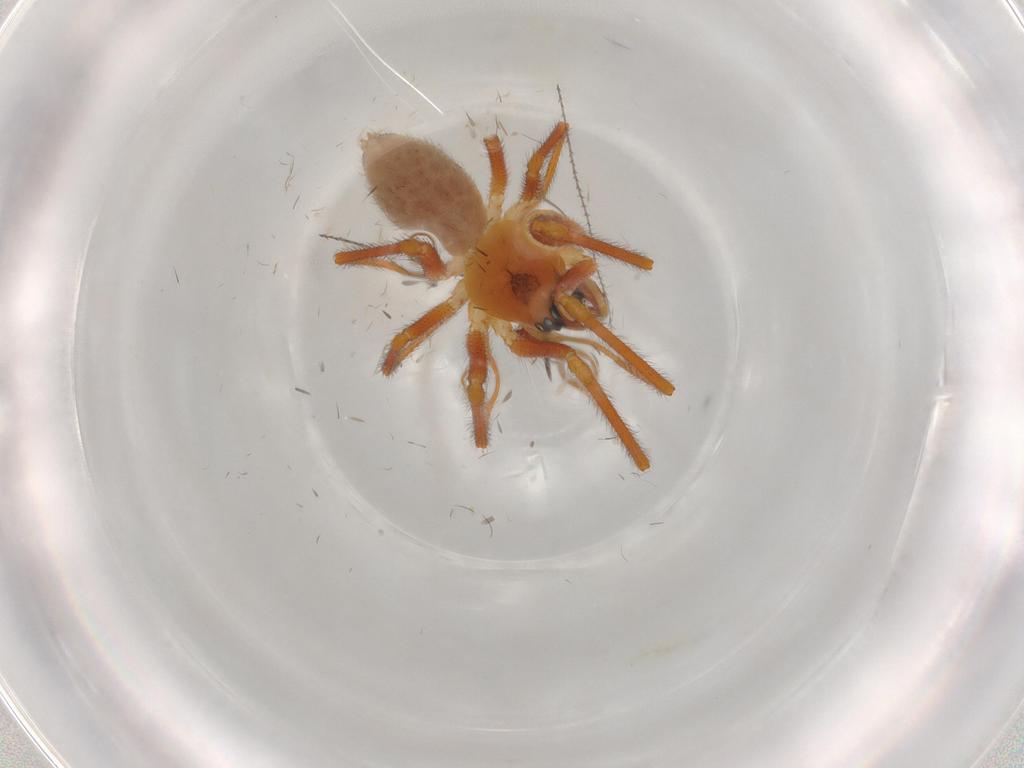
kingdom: Animalia
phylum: Arthropoda
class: Arachnida
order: Araneae
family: Linyphiidae
